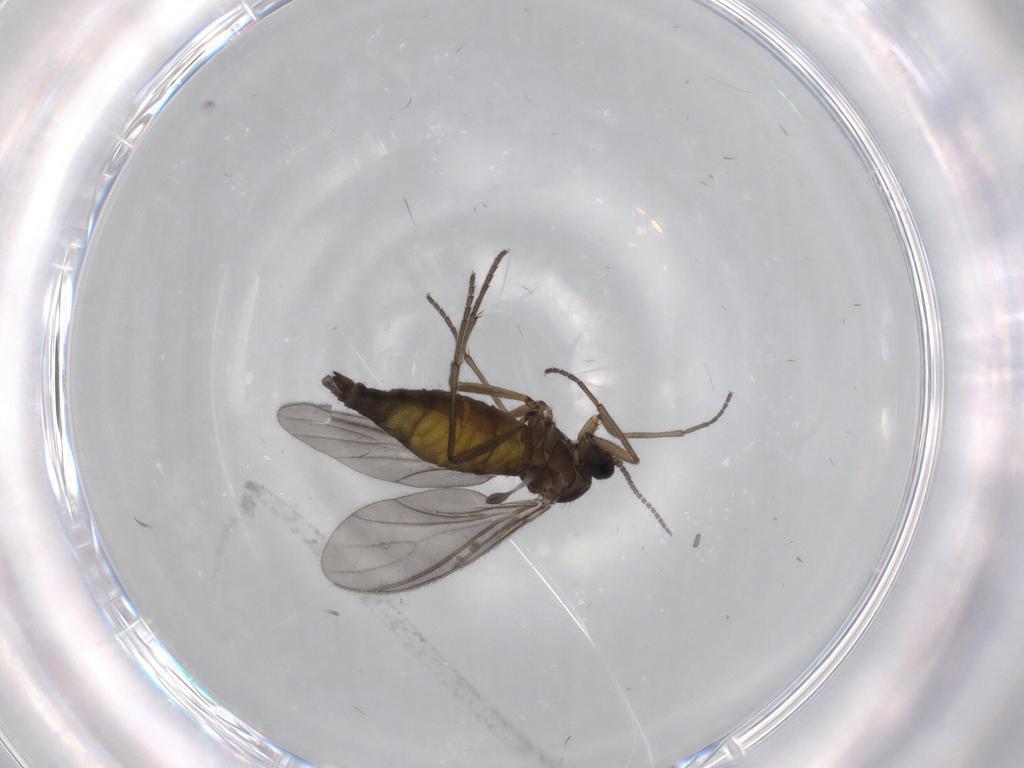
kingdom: Animalia
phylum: Arthropoda
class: Insecta
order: Diptera
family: Sciaridae
